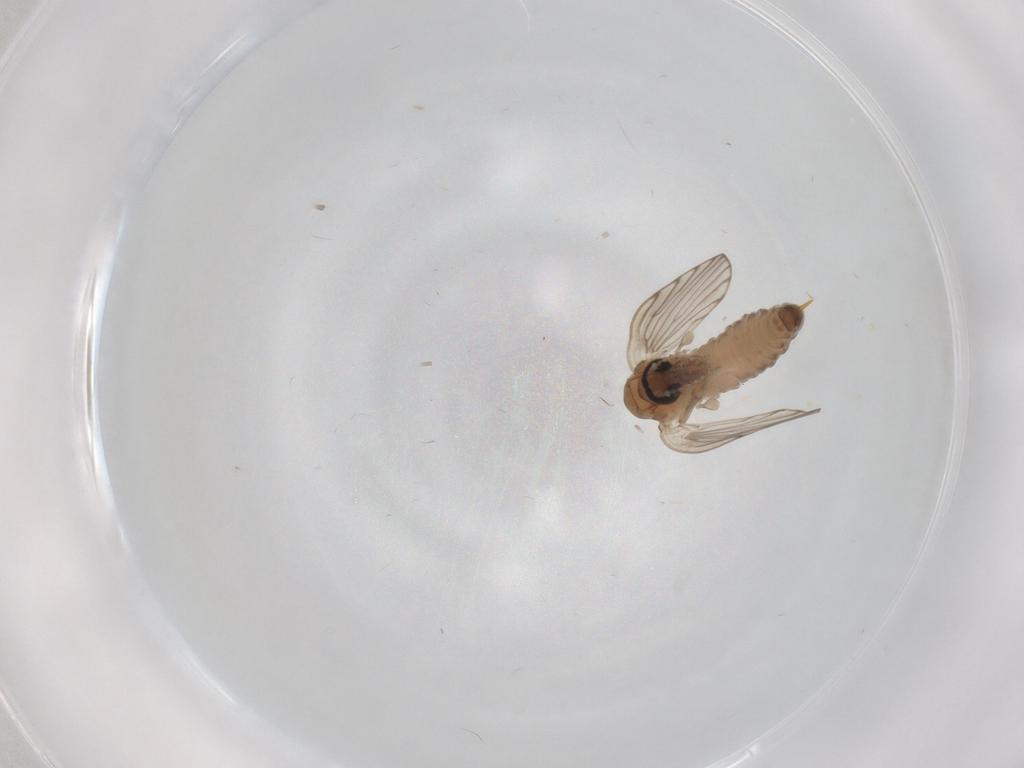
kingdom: Animalia
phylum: Arthropoda
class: Insecta
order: Diptera
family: Psychodidae
